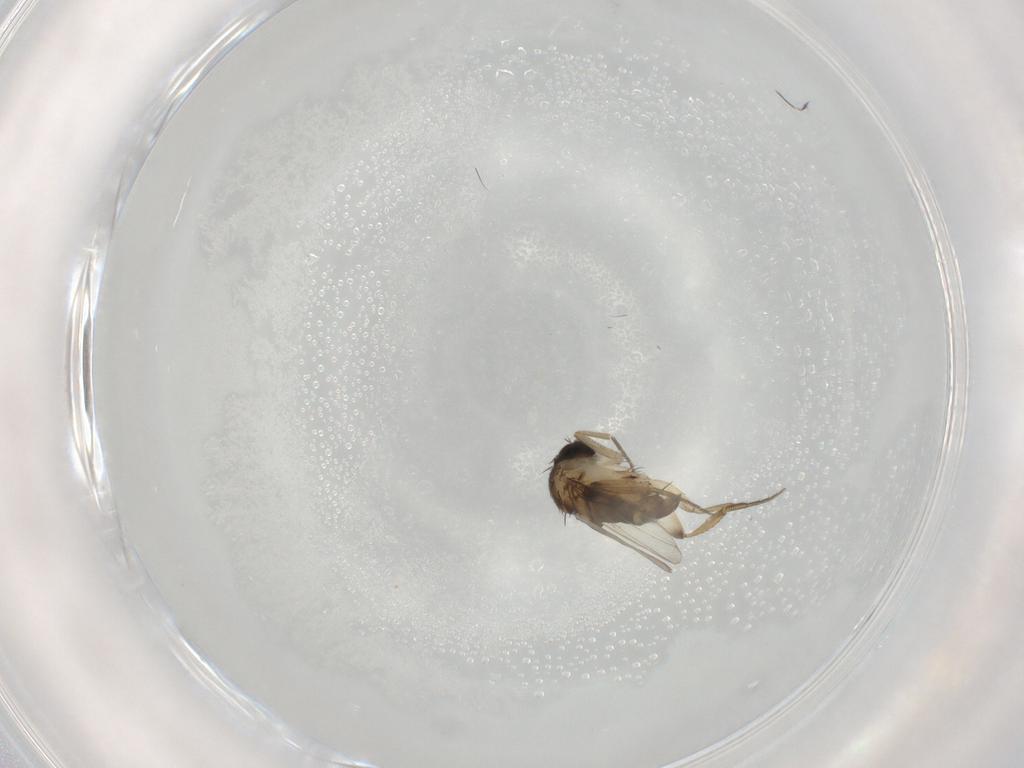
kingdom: Animalia
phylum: Arthropoda
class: Insecta
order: Diptera
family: Phoridae
